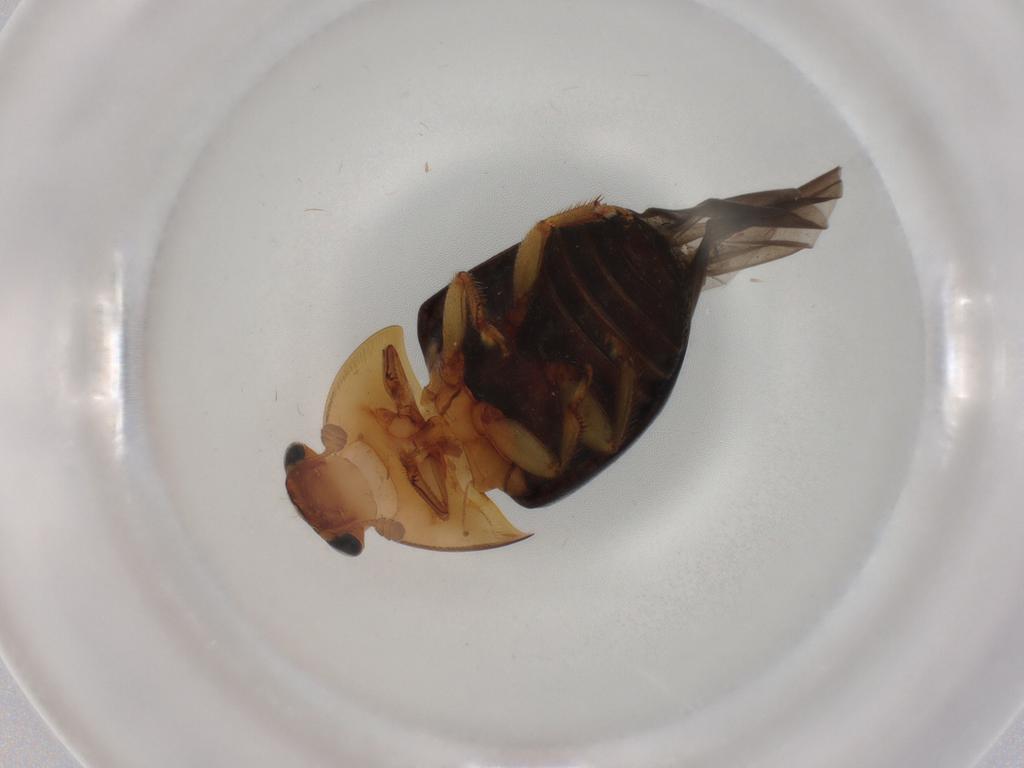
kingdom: Animalia
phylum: Arthropoda
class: Insecta
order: Coleoptera
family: Nitidulidae
